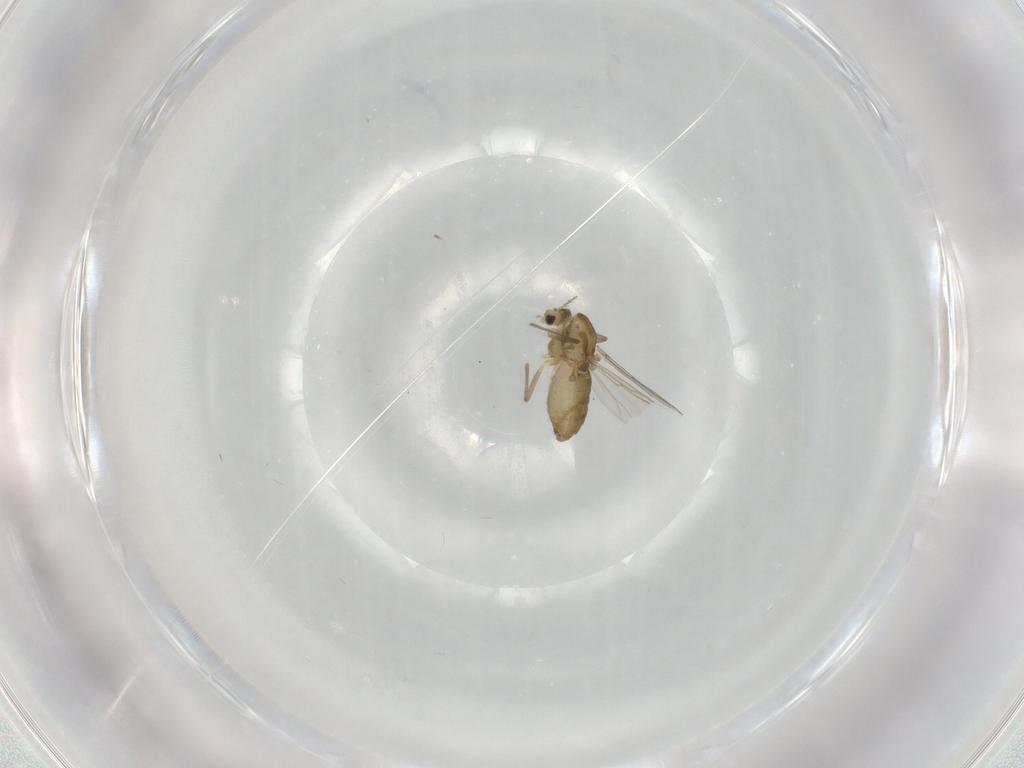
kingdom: Animalia
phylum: Arthropoda
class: Insecta
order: Diptera
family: Chironomidae
